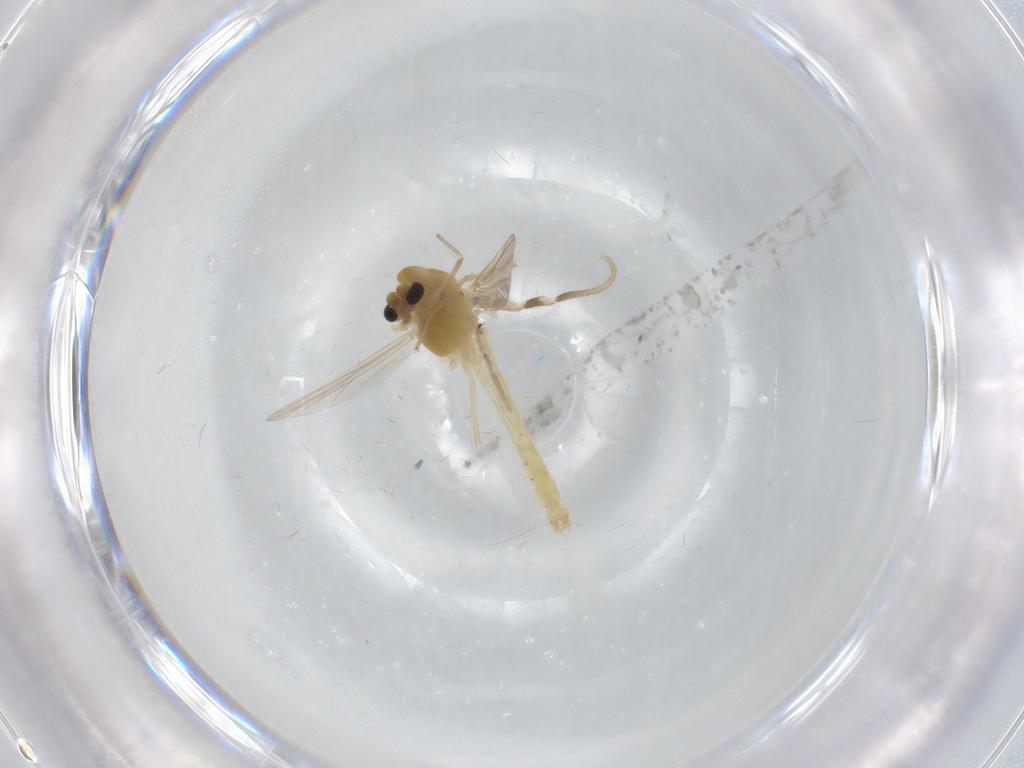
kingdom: Animalia
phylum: Arthropoda
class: Insecta
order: Diptera
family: Chironomidae
